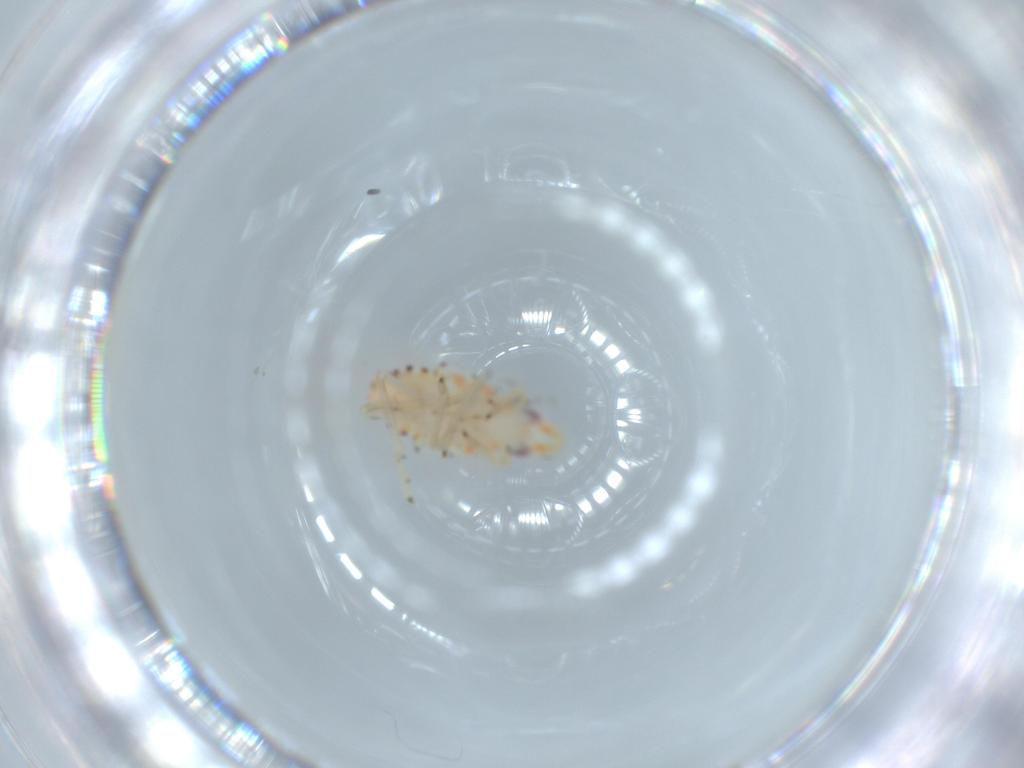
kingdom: Animalia
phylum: Arthropoda
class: Insecta
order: Hemiptera
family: Tropiduchidae
